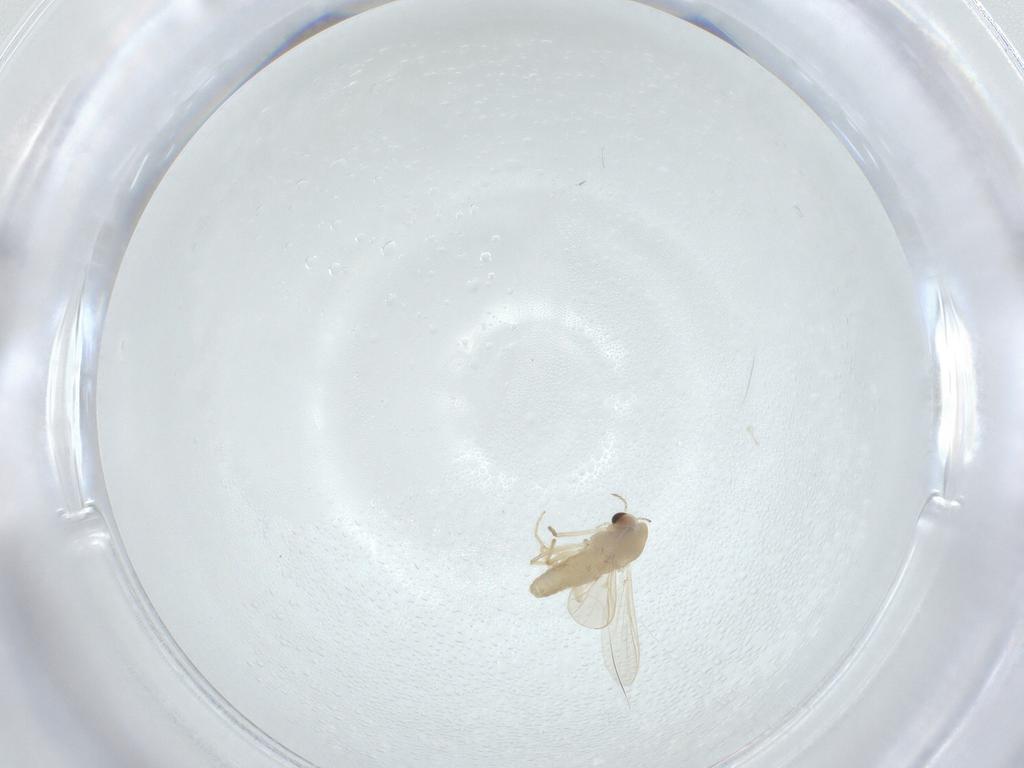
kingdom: Animalia
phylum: Arthropoda
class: Insecta
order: Diptera
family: Chironomidae
